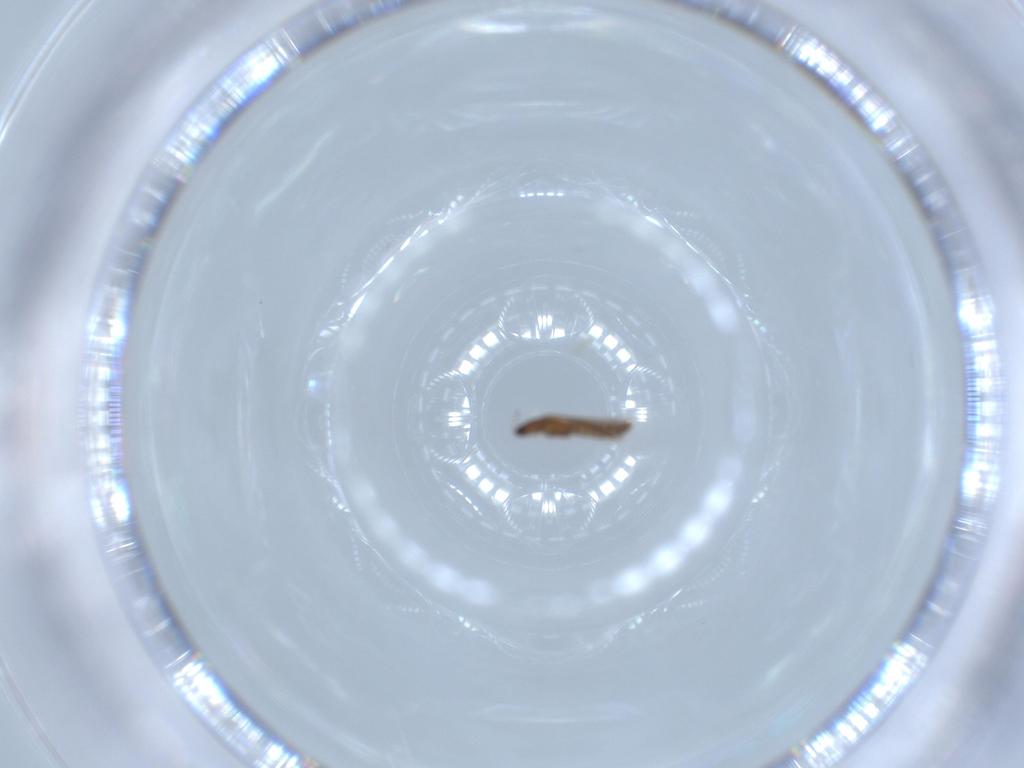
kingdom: Animalia
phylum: Arthropoda
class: Insecta
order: Thysanoptera
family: Thripidae
